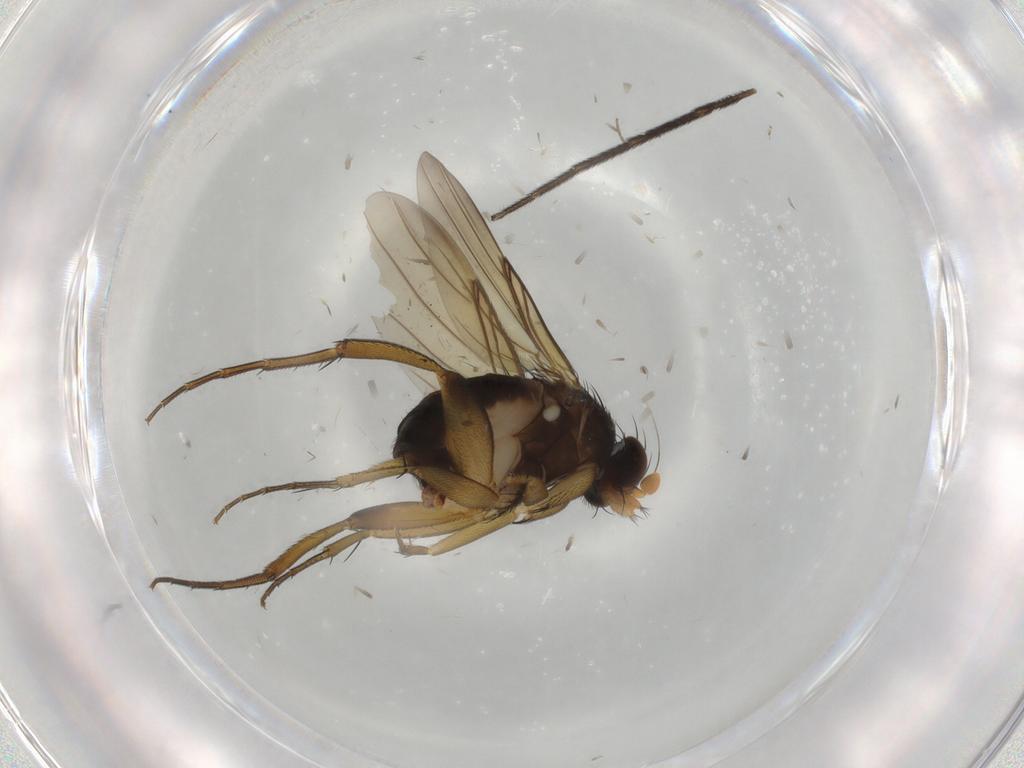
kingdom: Animalia
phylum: Arthropoda
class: Insecta
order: Diptera
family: Phoridae
